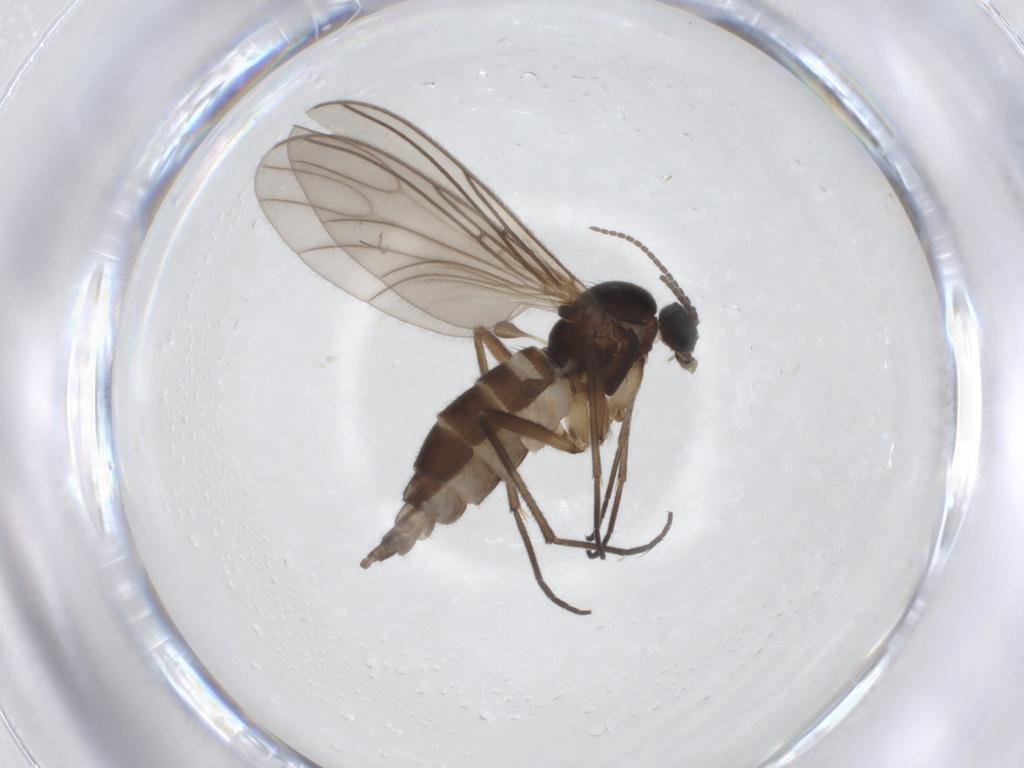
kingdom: Animalia
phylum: Arthropoda
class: Insecta
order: Diptera
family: Sciaridae
